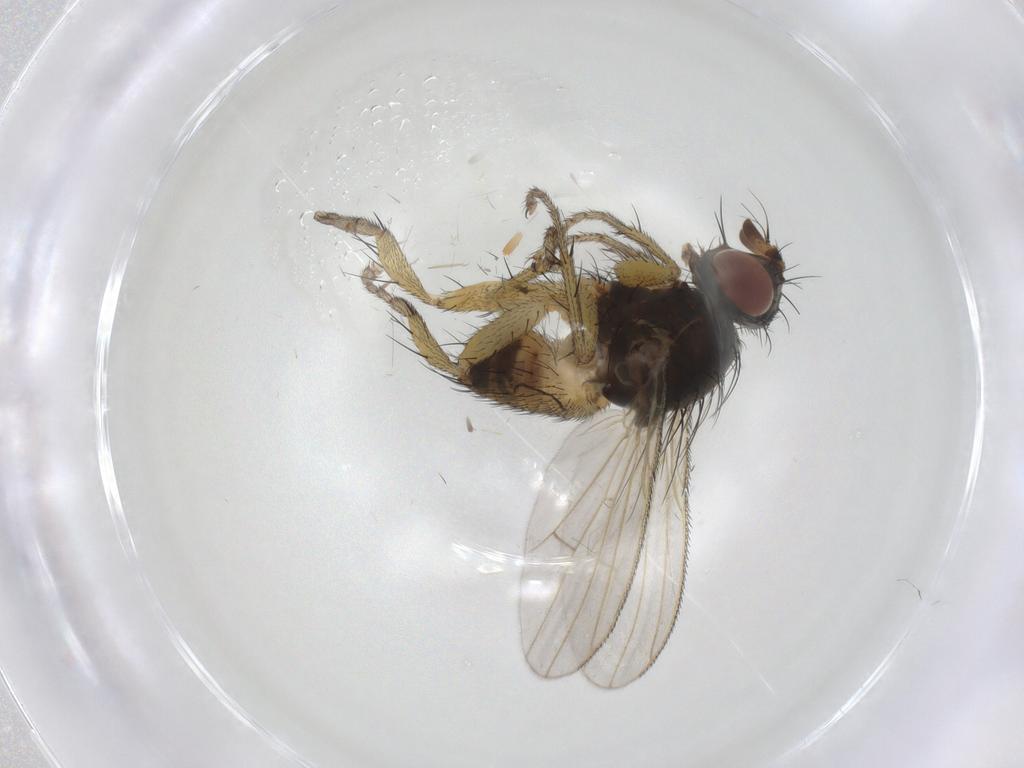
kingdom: Animalia
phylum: Arthropoda
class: Insecta
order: Diptera
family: Muscidae
